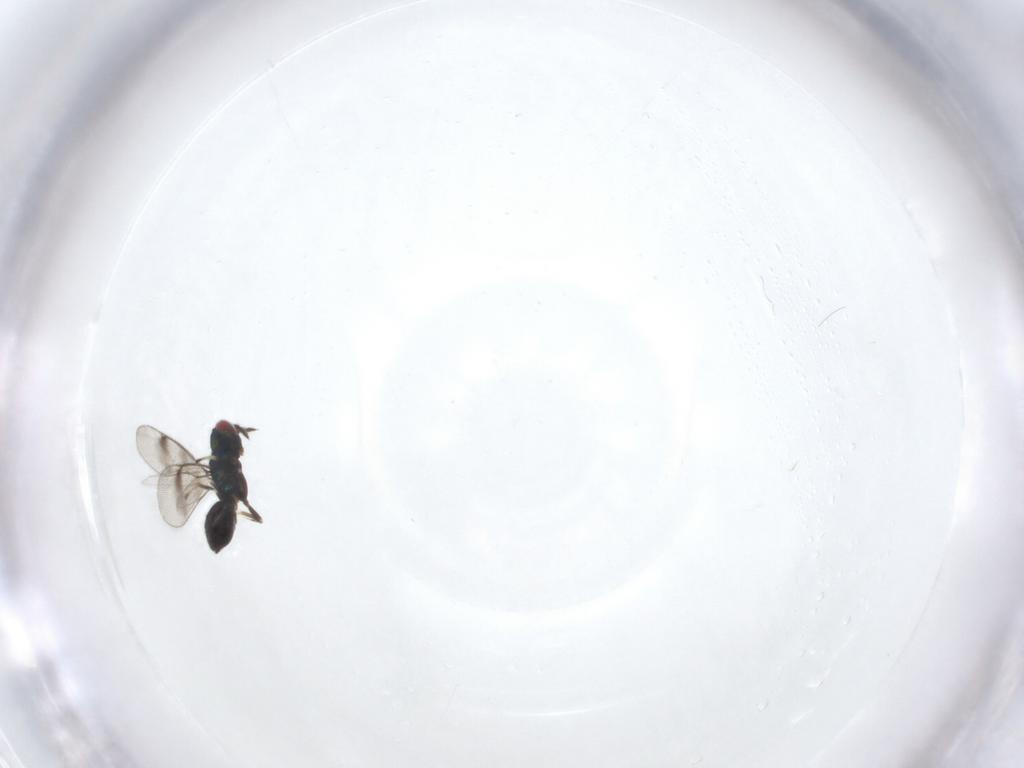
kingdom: Animalia
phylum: Arthropoda
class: Insecta
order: Hymenoptera
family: Eulophidae
